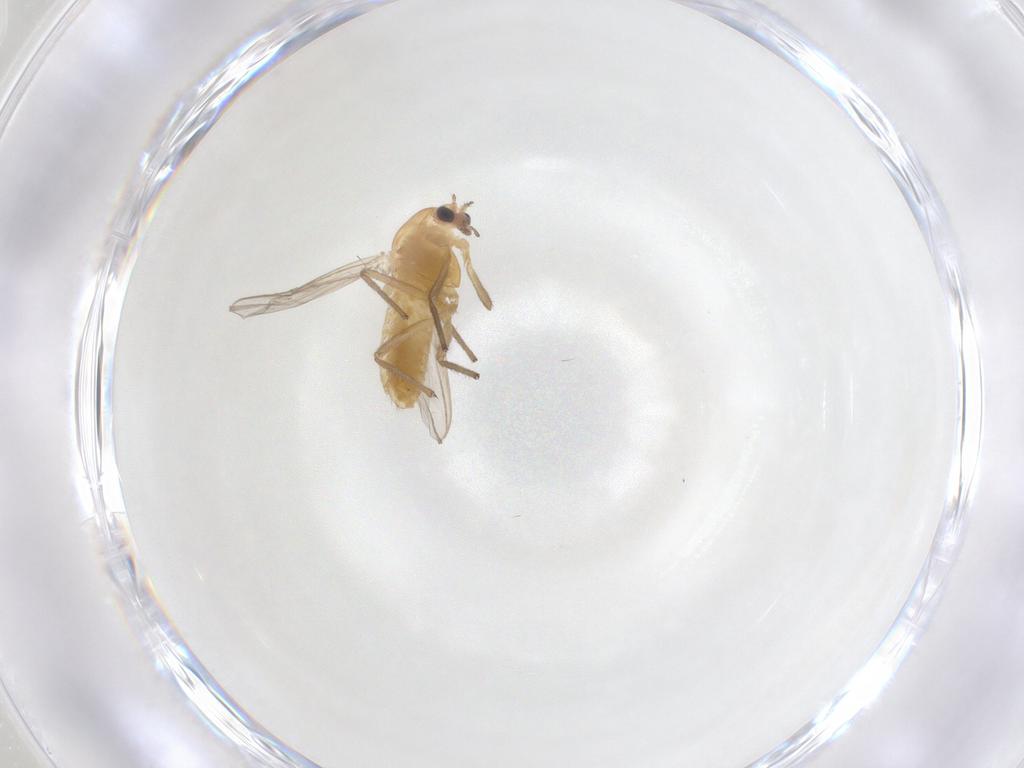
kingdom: Animalia
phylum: Arthropoda
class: Insecta
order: Diptera
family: Chironomidae
